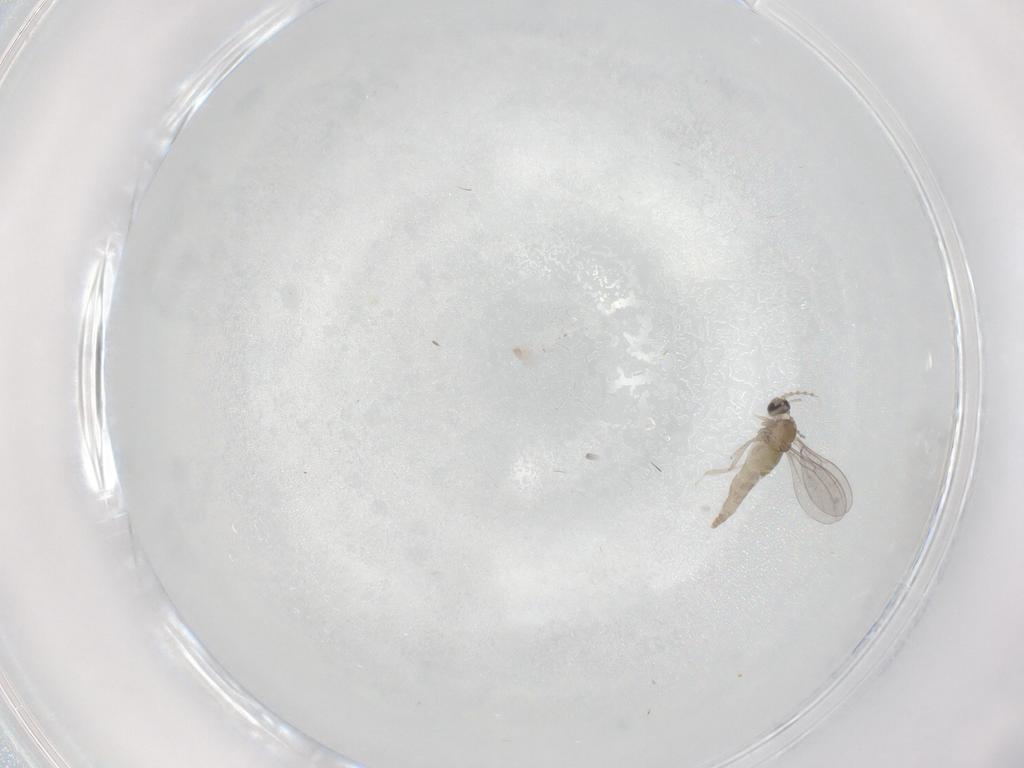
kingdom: Animalia
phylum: Arthropoda
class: Insecta
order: Diptera
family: Cecidomyiidae
